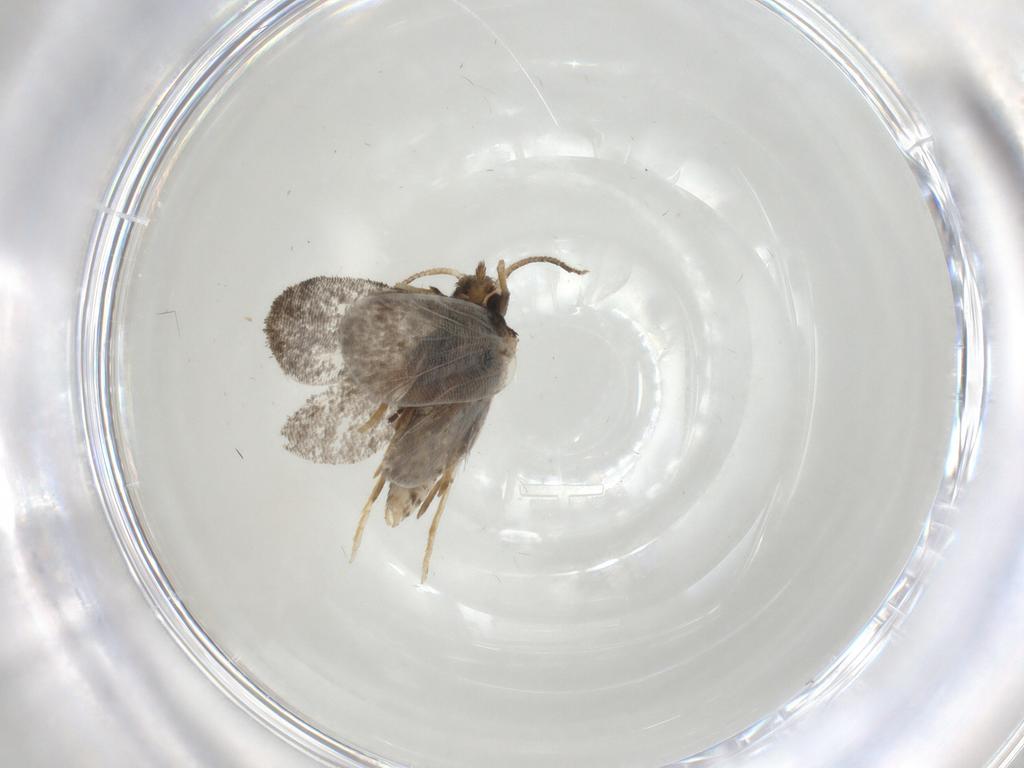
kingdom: Animalia
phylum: Arthropoda
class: Insecta
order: Lepidoptera
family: Psychidae
